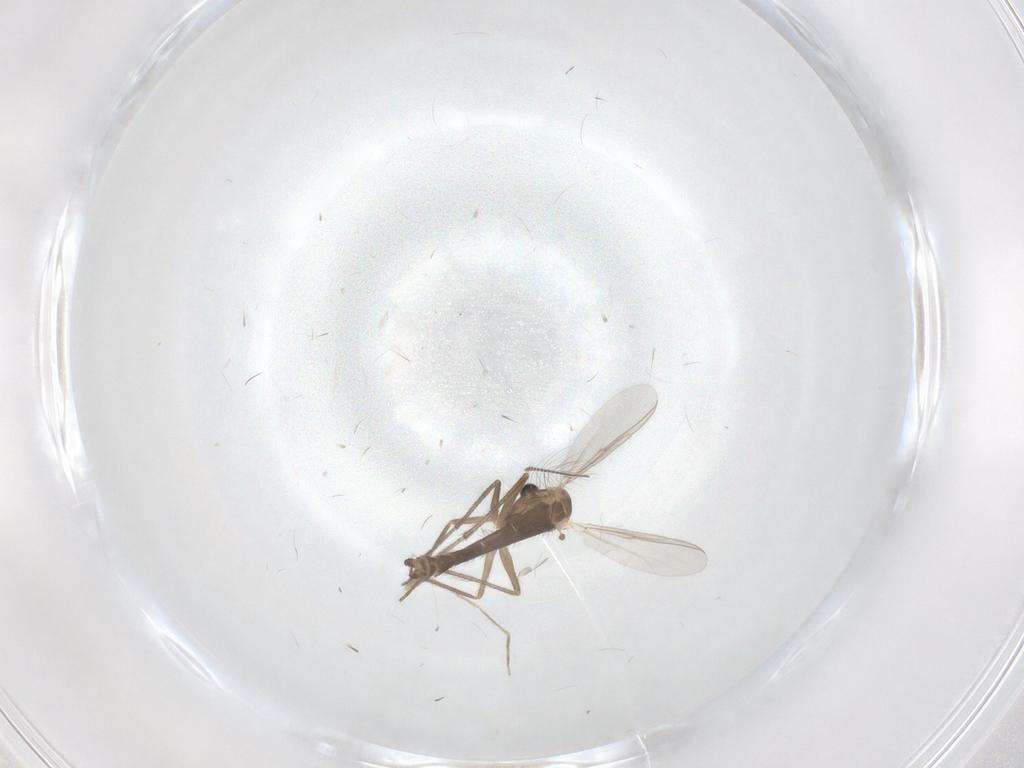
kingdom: Animalia
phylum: Arthropoda
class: Insecta
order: Diptera
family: Chironomidae
